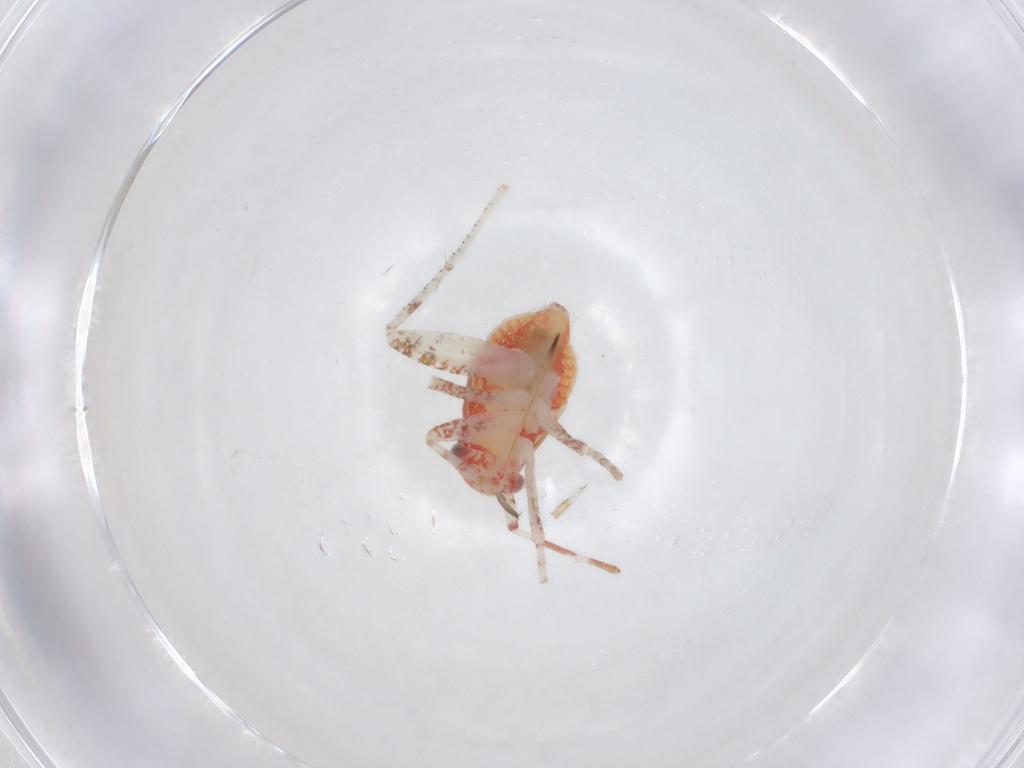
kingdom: Animalia
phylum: Arthropoda
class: Insecta
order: Hemiptera
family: Miridae
